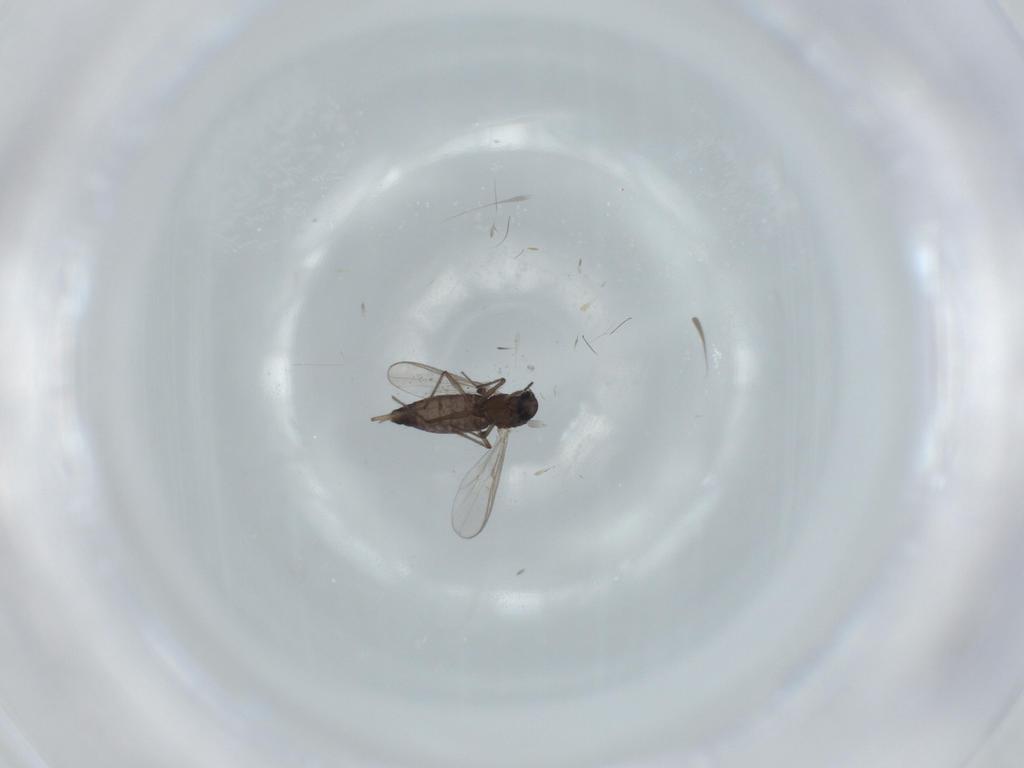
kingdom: Animalia
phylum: Arthropoda
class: Insecta
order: Diptera
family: Chironomidae
